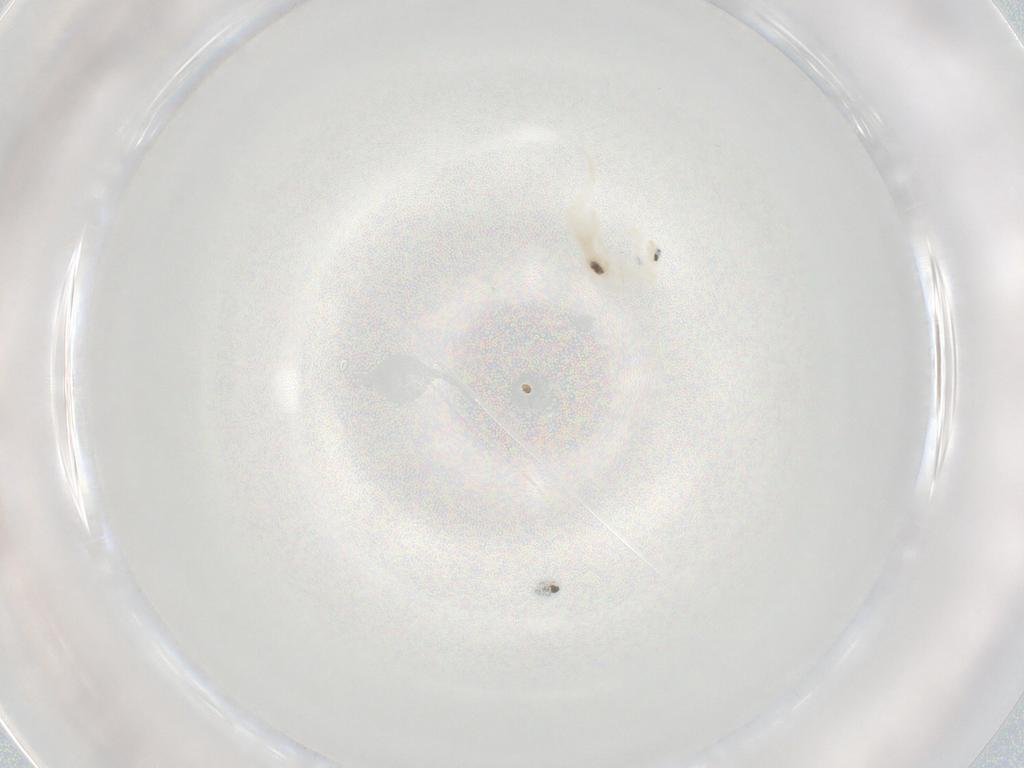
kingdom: Animalia
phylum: Arthropoda
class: Collembola
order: Entomobryomorpha
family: Entomobryidae
